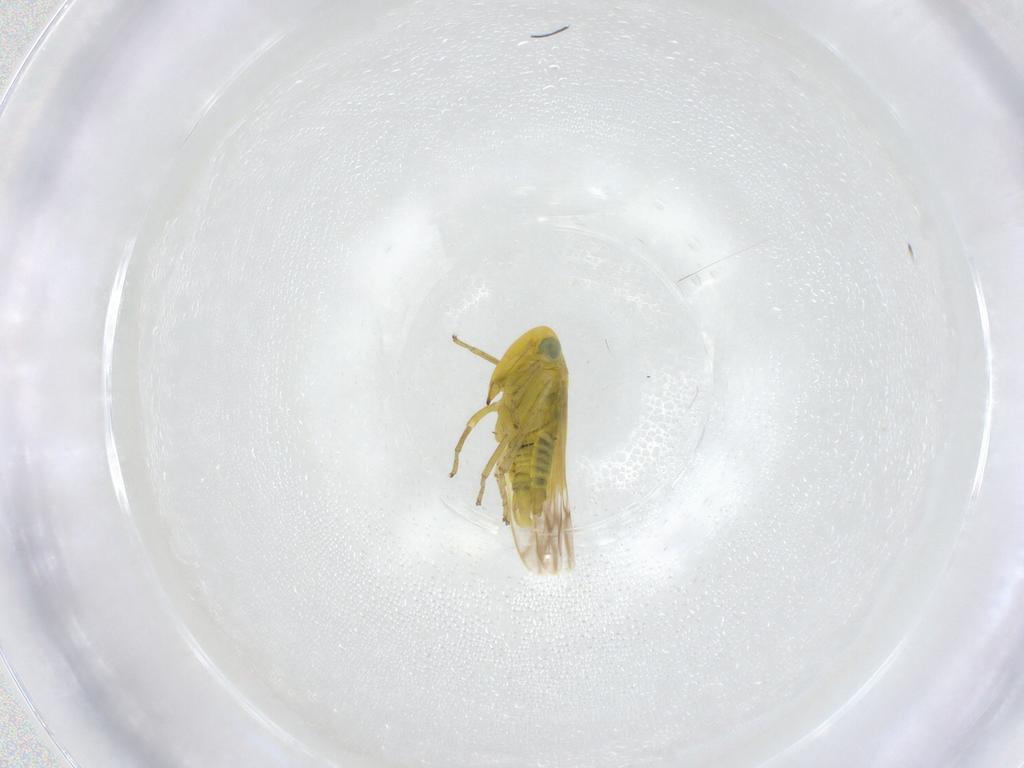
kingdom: Animalia
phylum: Arthropoda
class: Insecta
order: Hemiptera
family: Cicadellidae
